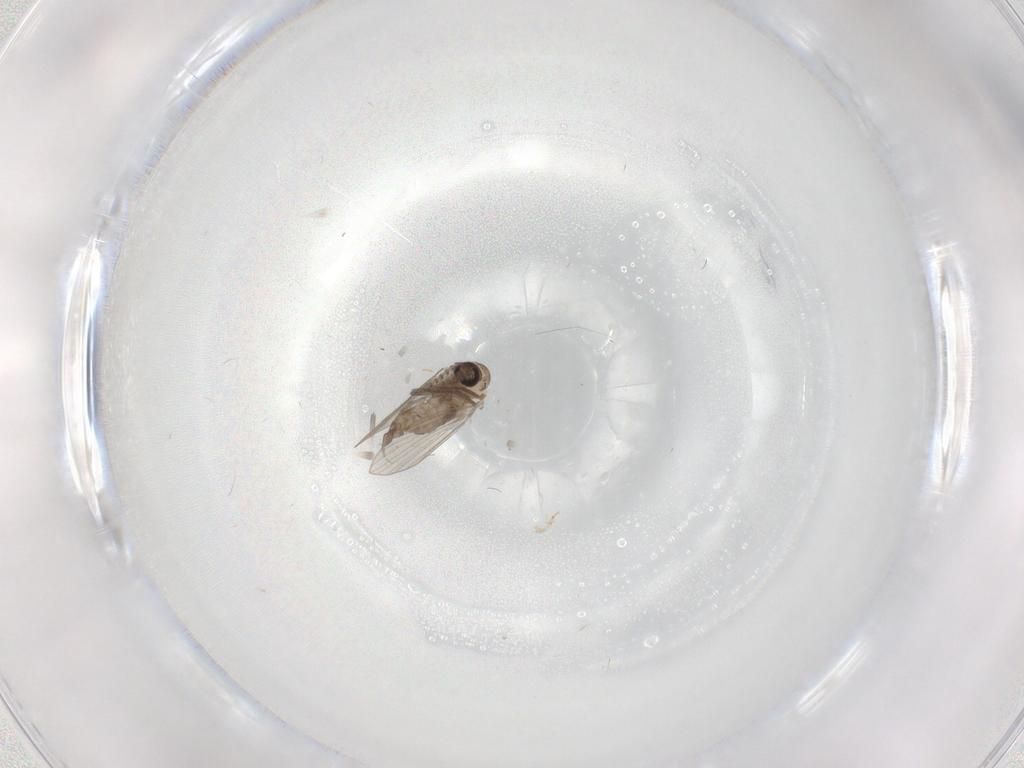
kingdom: Animalia
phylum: Arthropoda
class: Insecta
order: Diptera
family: Psychodidae
